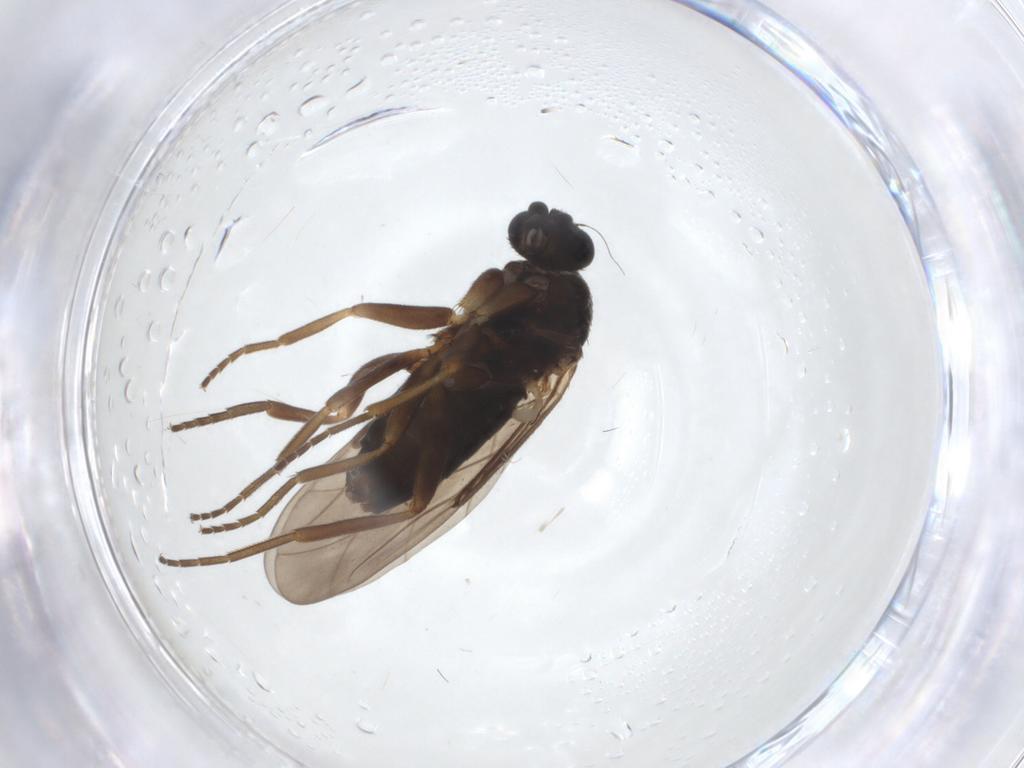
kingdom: Animalia
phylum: Arthropoda
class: Insecta
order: Diptera
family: Phoridae
